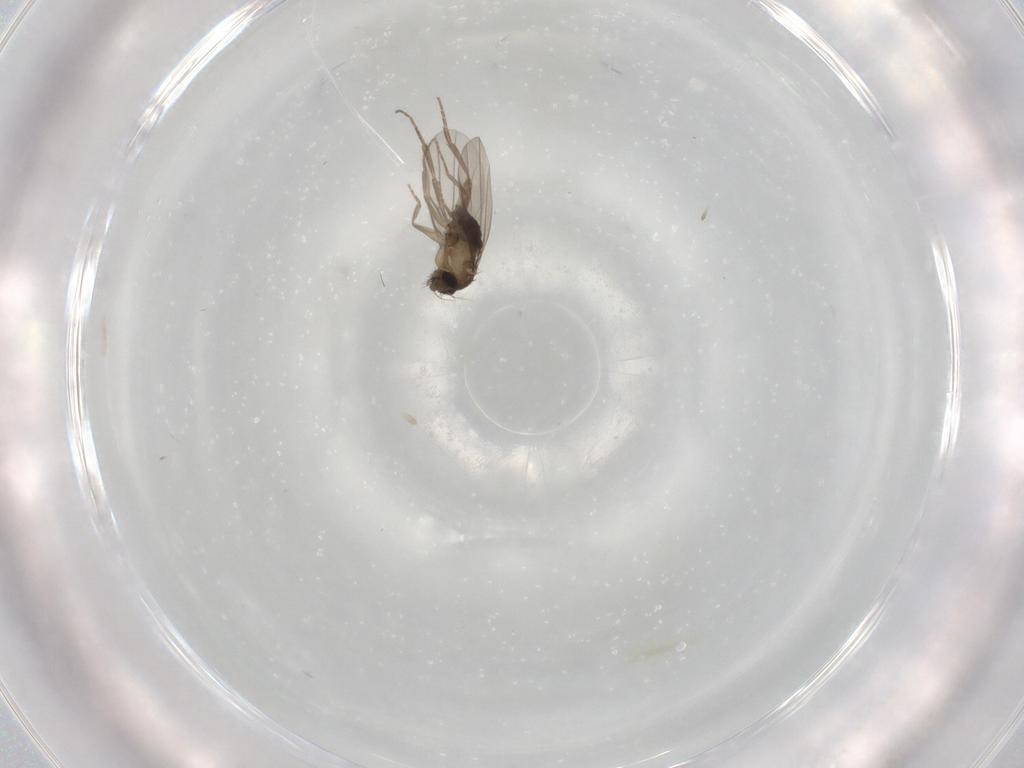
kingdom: Animalia
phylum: Arthropoda
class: Insecta
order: Diptera
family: Phoridae
